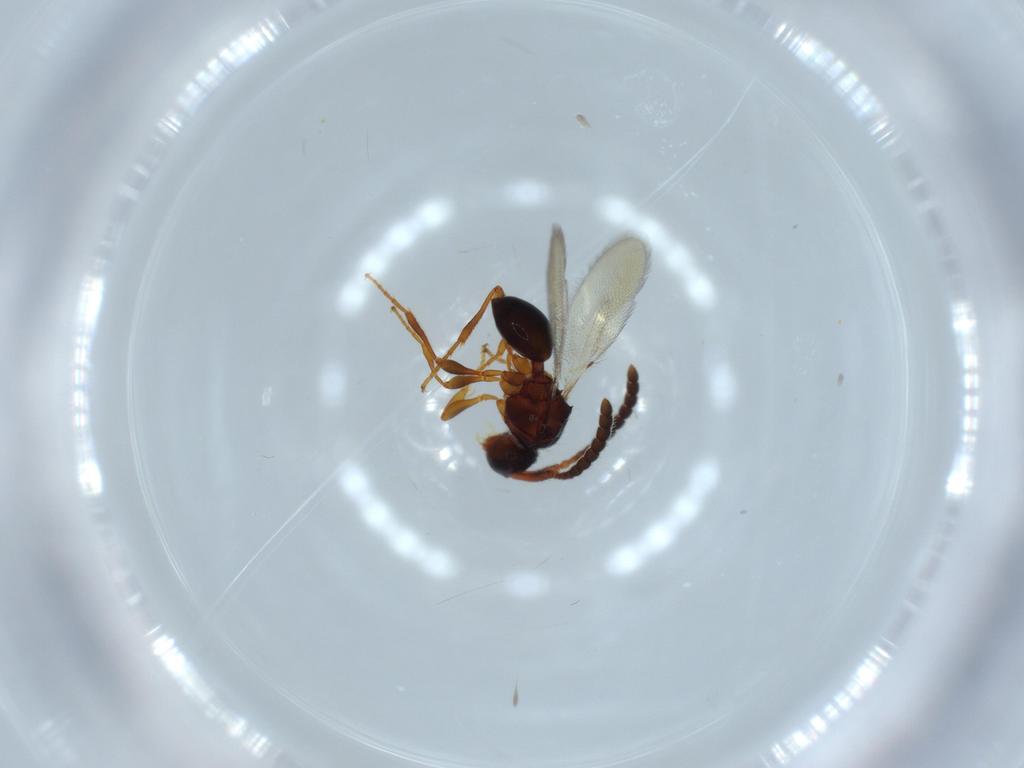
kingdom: Animalia
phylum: Arthropoda
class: Insecta
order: Hymenoptera
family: Diapriidae
